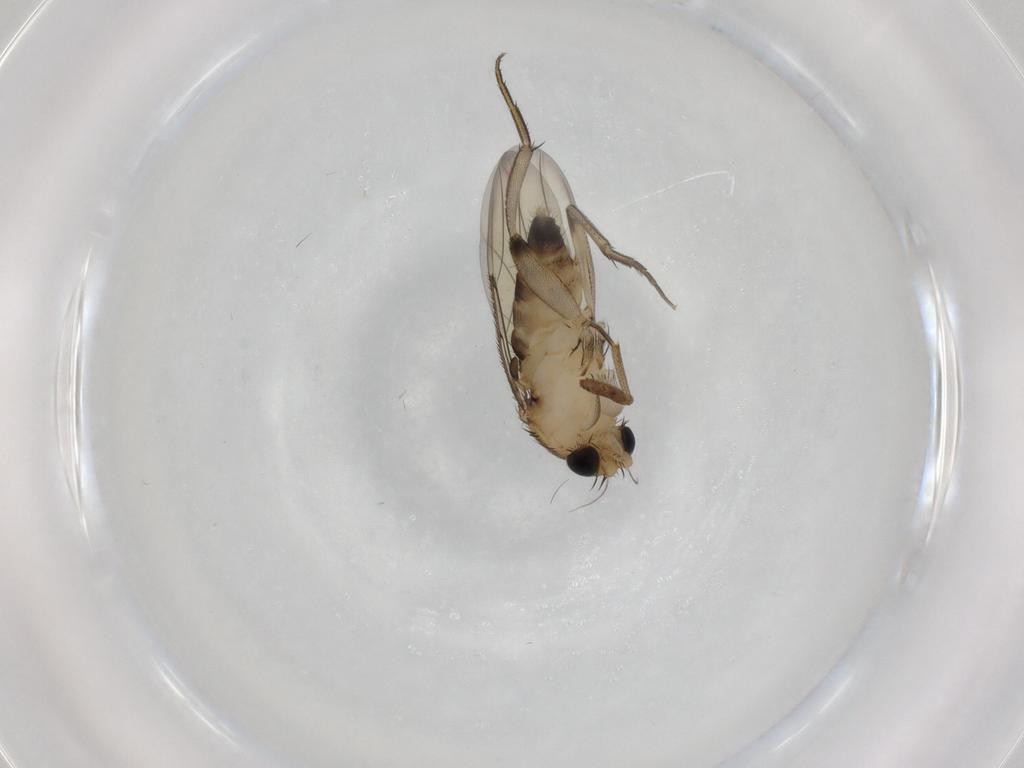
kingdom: Animalia
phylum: Arthropoda
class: Insecta
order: Diptera
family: Phoridae
